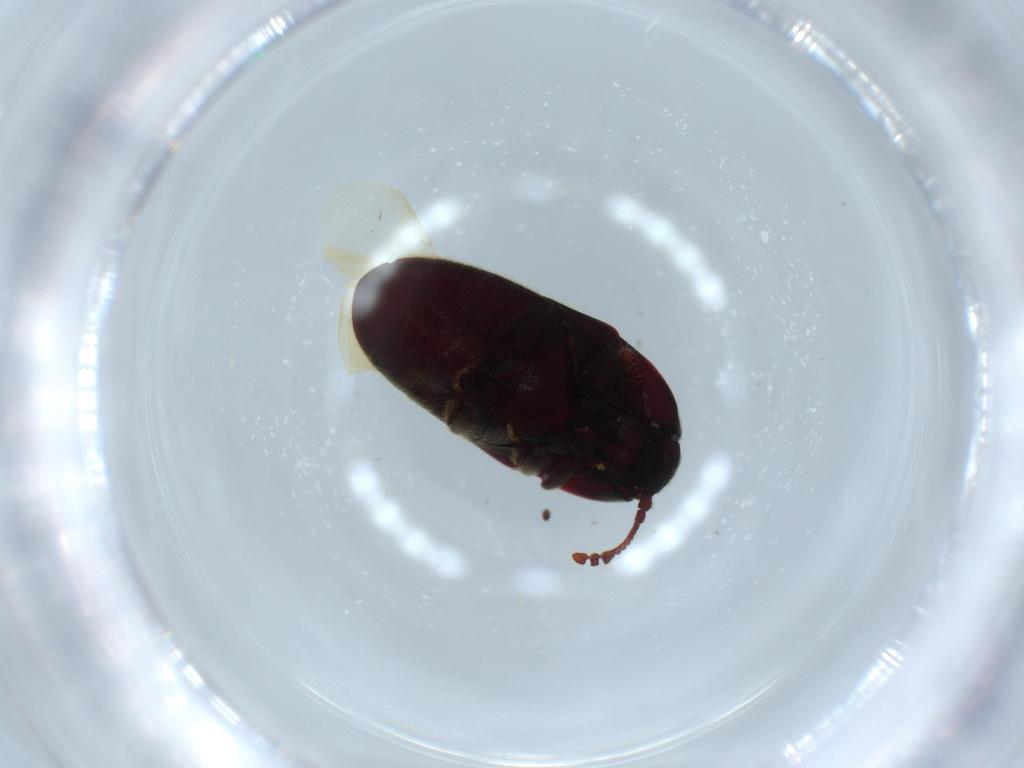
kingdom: Animalia
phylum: Arthropoda
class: Insecta
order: Coleoptera
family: Throscidae
